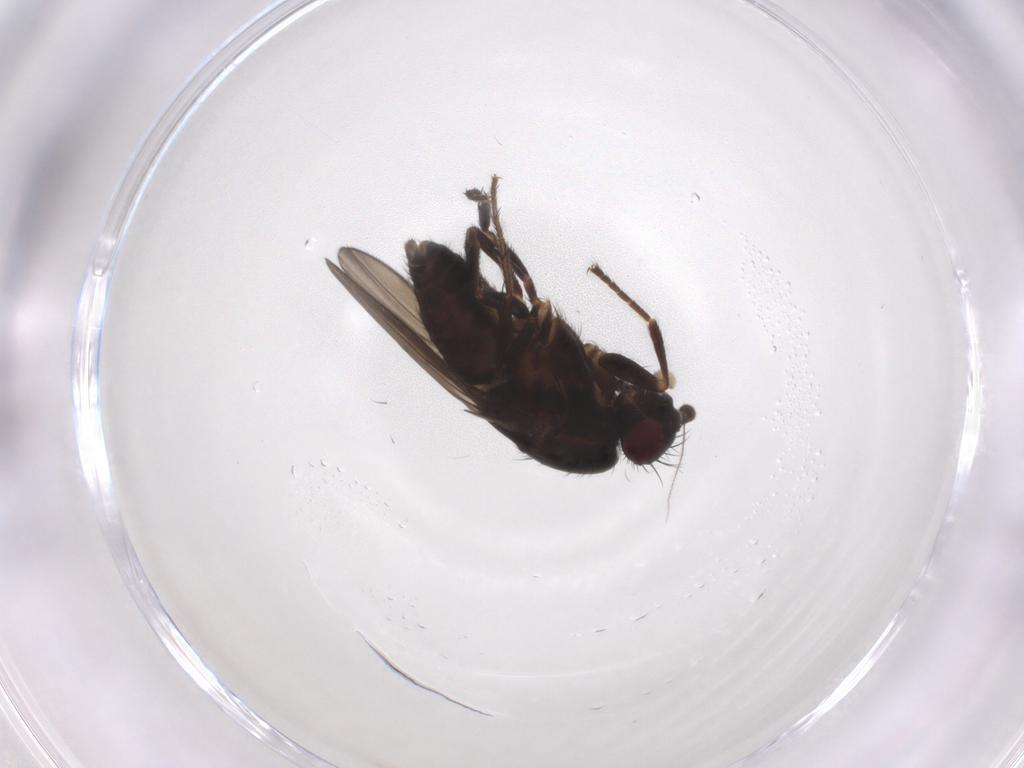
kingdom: Animalia
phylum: Arthropoda
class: Insecta
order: Diptera
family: Sphaeroceridae
